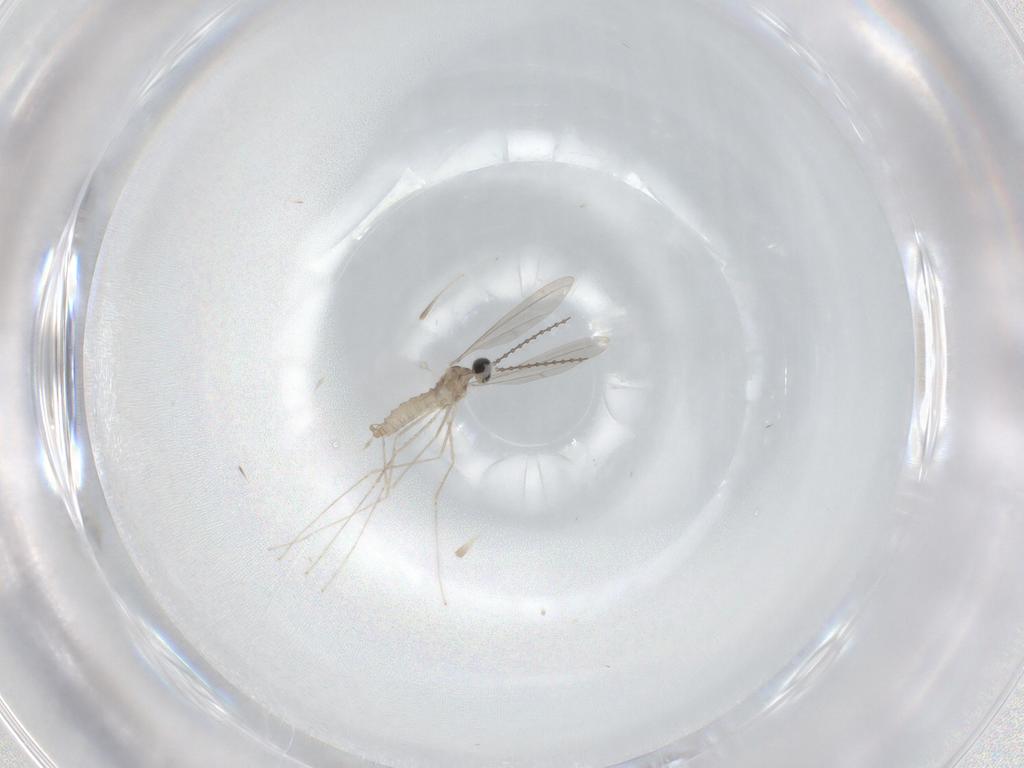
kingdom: Animalia
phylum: Arthropoda
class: Insecta
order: Diptera
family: Cecidomyiidae
